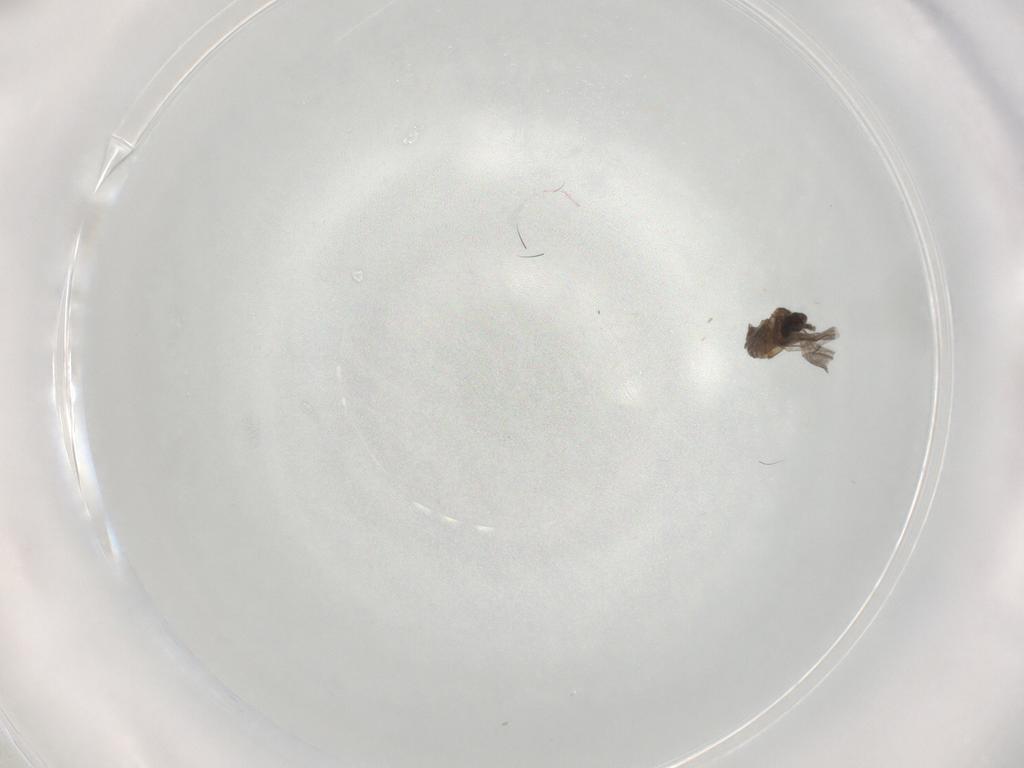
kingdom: Animalia
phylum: Arthropoda
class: Insecta
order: Diptera
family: Sciaridae
